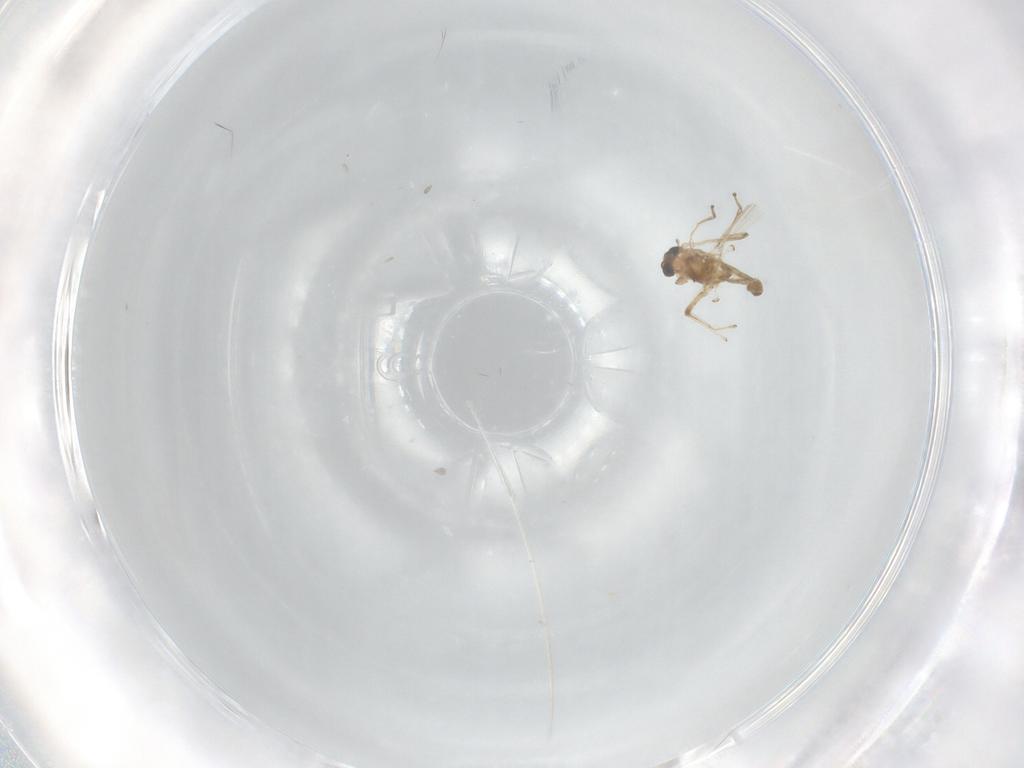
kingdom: Animalia
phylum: Arthropoda
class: Insecta
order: Diptera
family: Chironomidae
